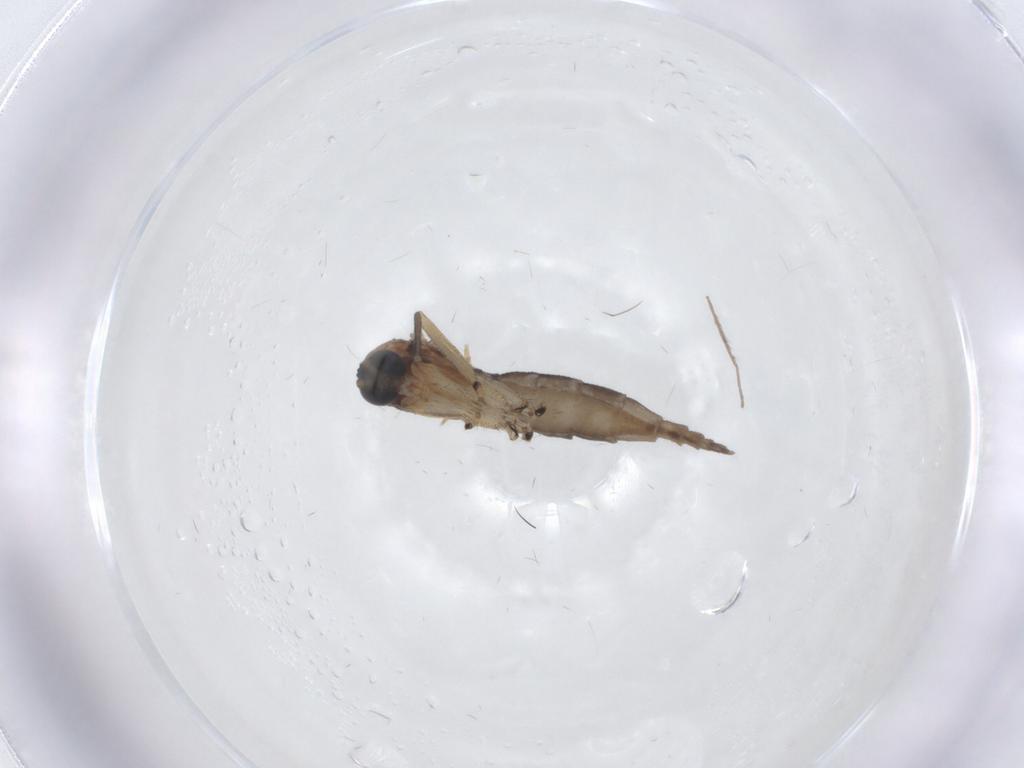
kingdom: Animalia
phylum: Arthropoda
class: Insecta
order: Diptera
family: Sciaridae
